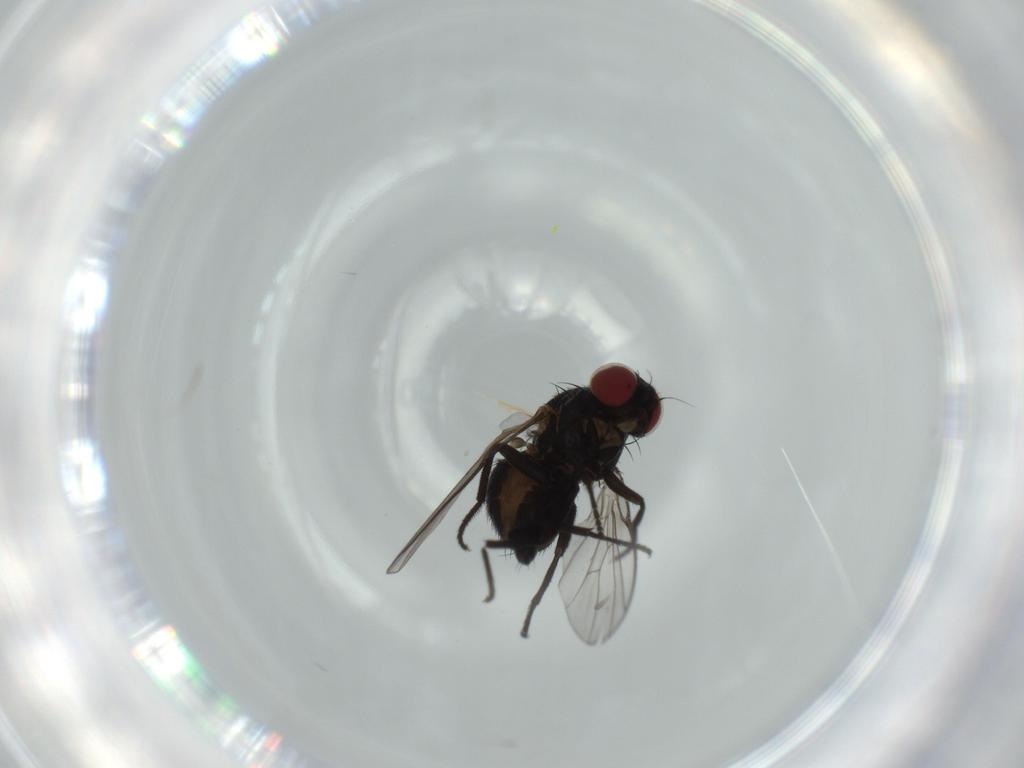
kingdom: Animalia
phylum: Arthropoda
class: Insecta
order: Diptera
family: Agromyzidae
